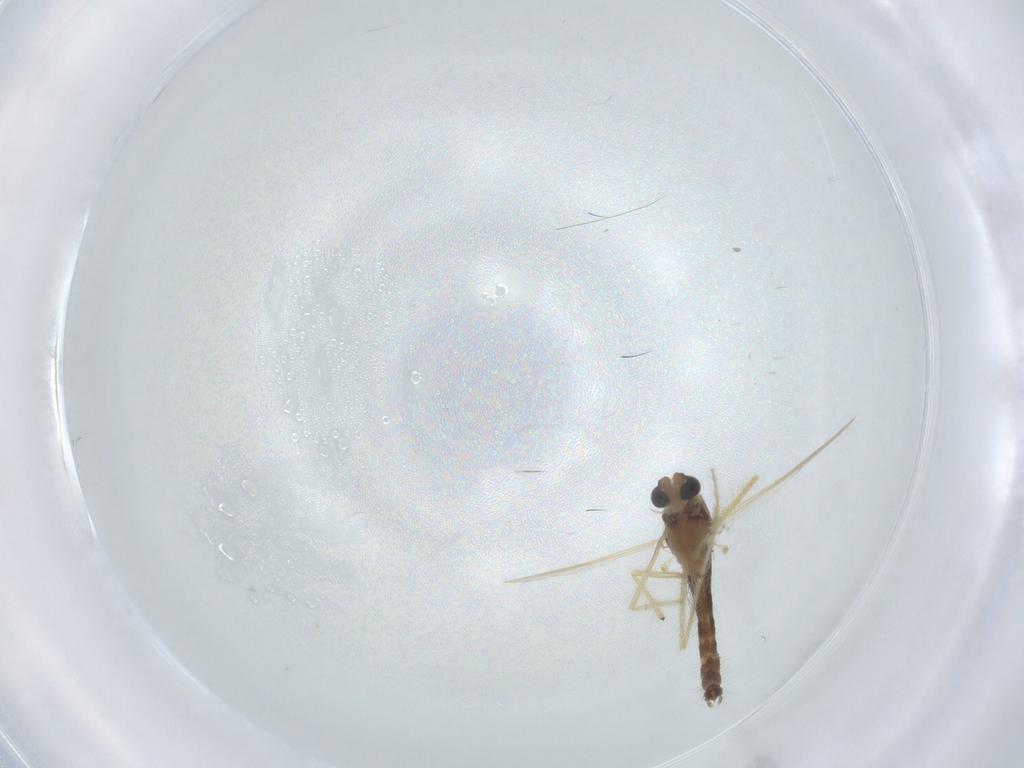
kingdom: Animalia
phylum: Arthropoda
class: Insecta
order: Diptera
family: Chironomidae
